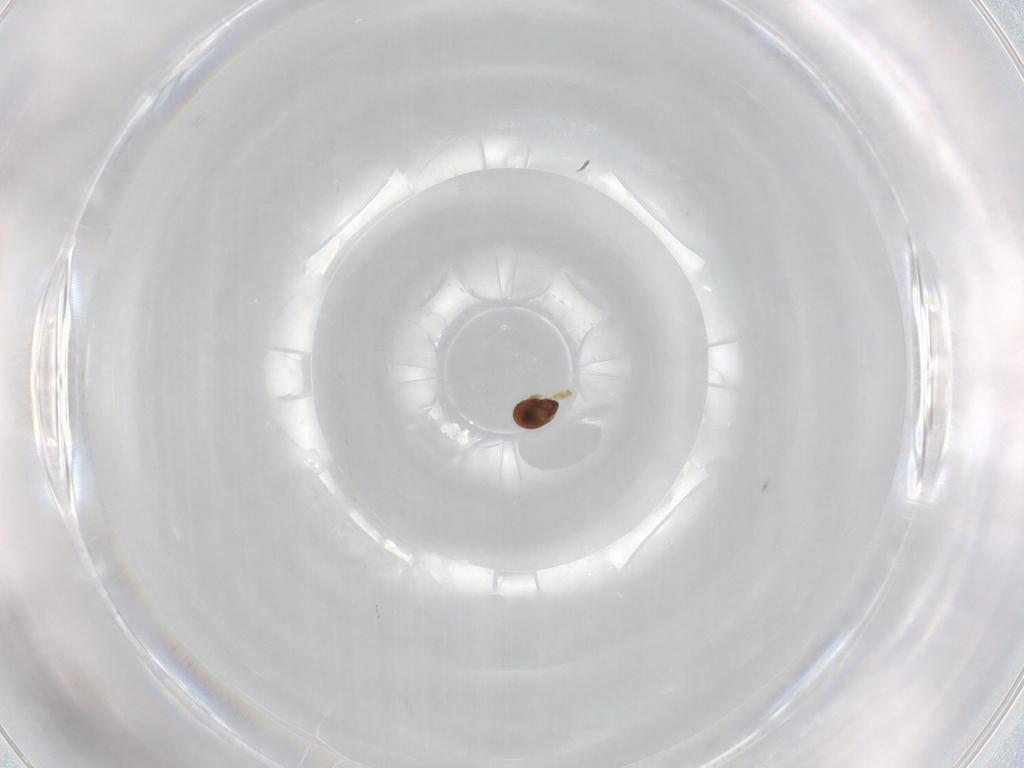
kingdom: Animalia
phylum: Arthropoda
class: Arachnida
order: Sarcoptiformes
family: Tegoribatidae
